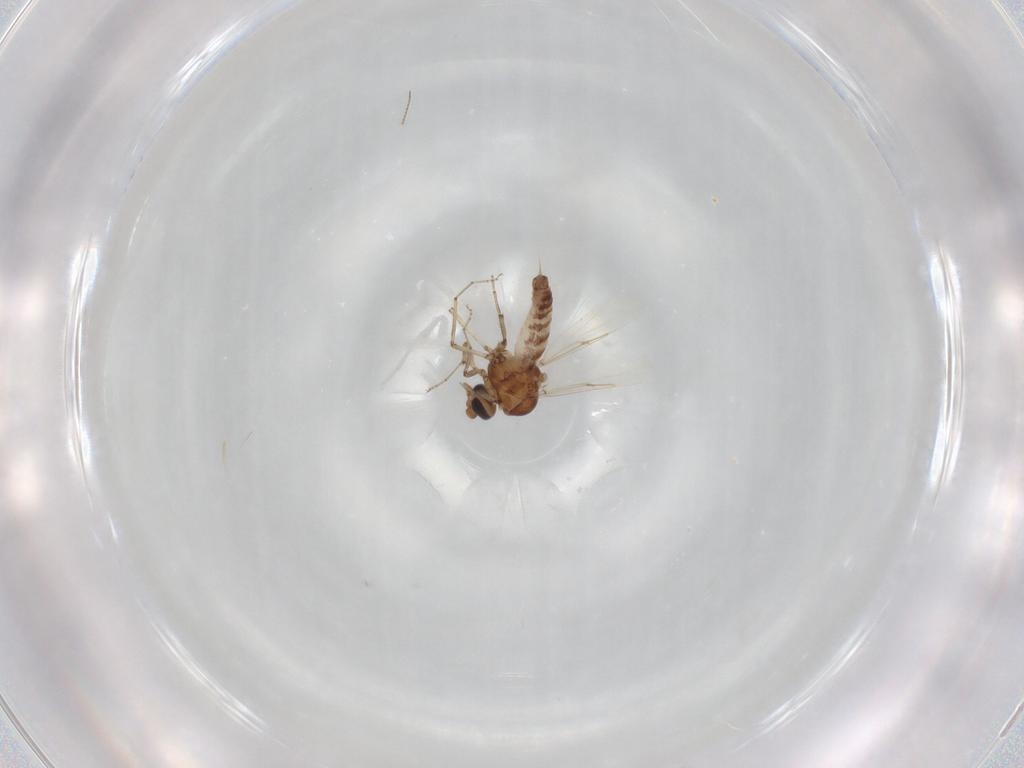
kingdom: Animalia
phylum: Arthropoda
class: Insecta
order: Diptera
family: Ceratopogonidae
